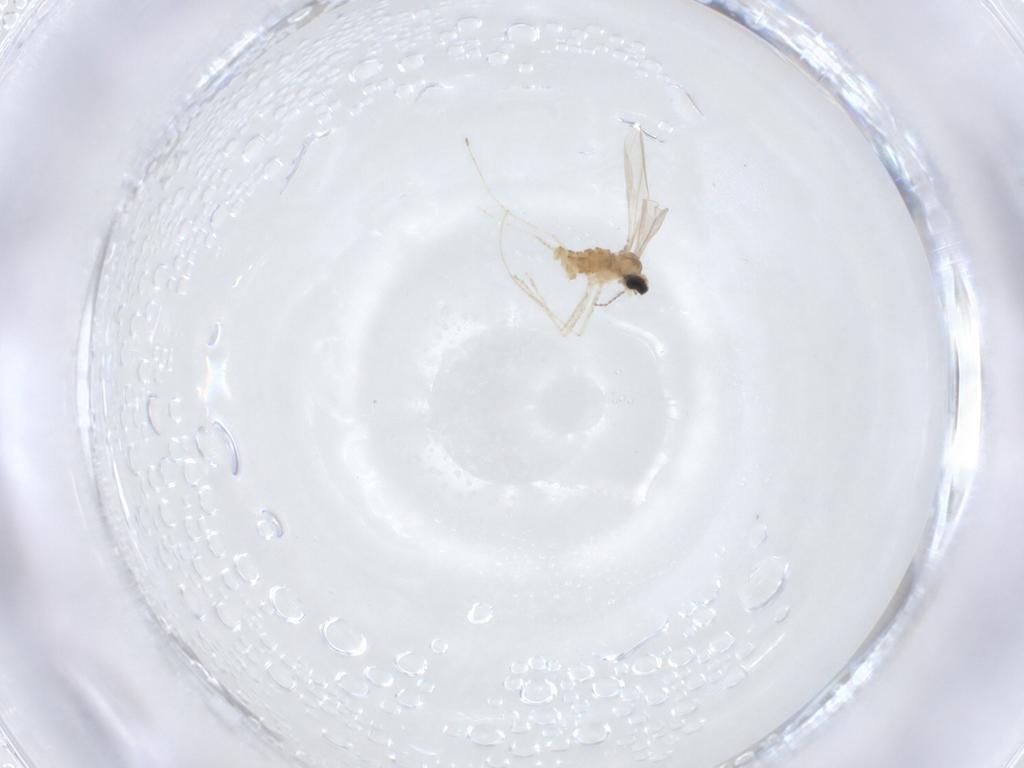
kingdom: Animalia
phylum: Arthropoda
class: Insecta
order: Diptera
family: Cecidomyiidae
